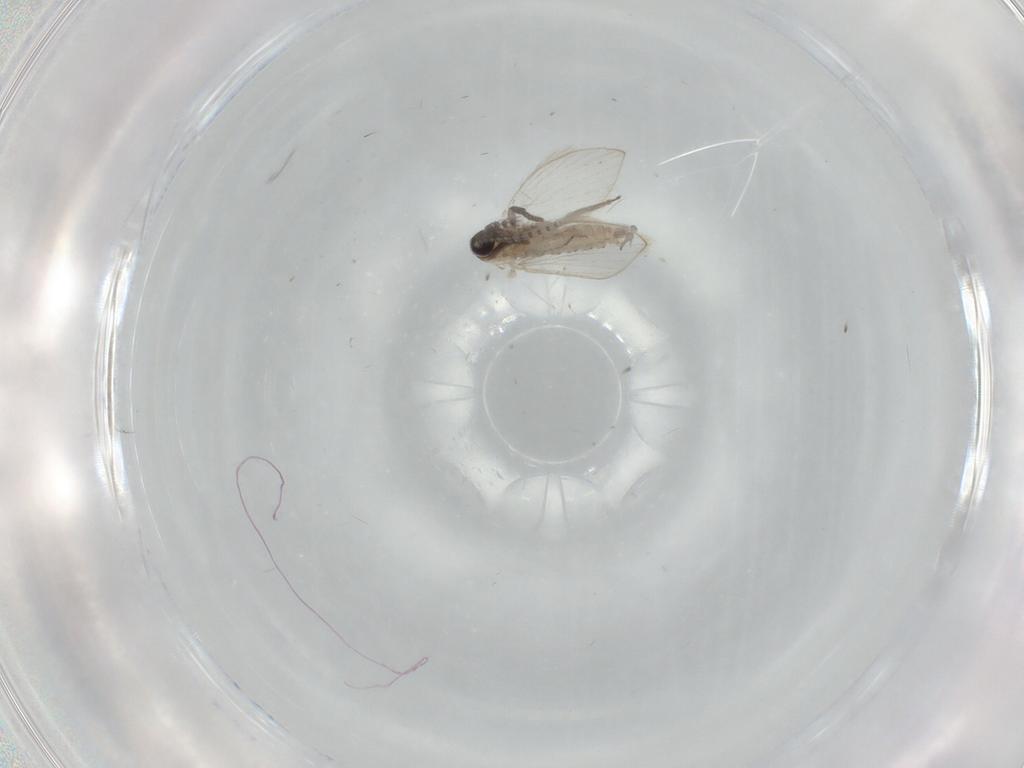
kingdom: Animalia
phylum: Arthropoda
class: Insecta
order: Diptera
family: Psychodidae
